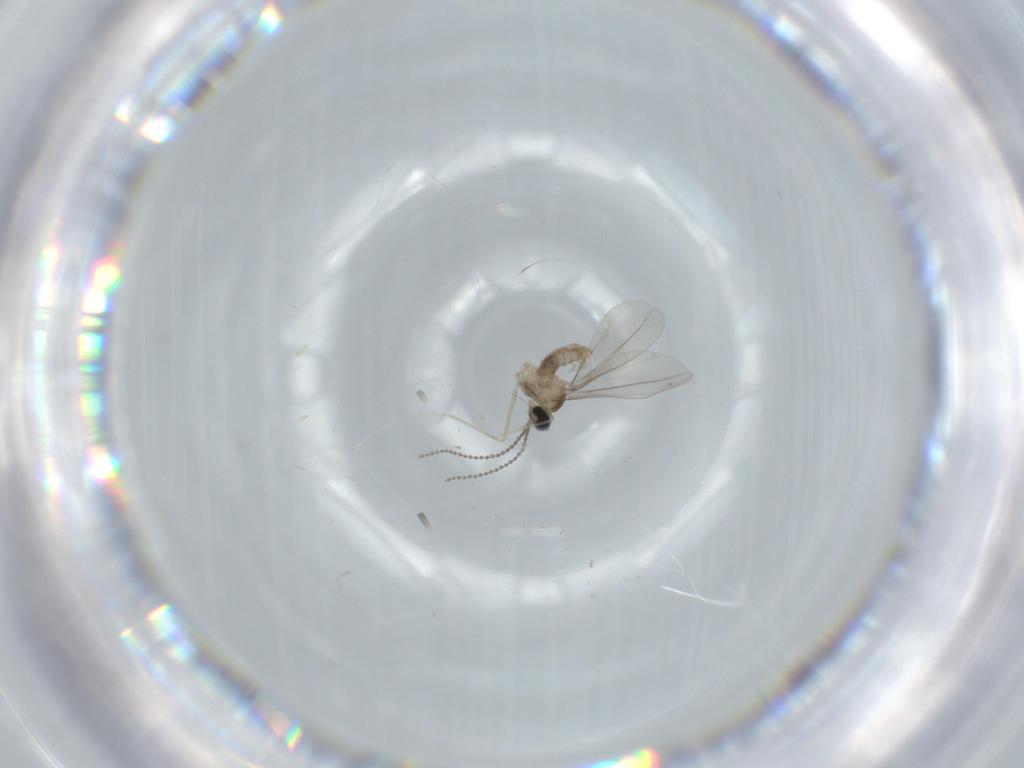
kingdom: Animalia
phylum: Arthropoda
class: Insecta
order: Diptera
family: Cecidomyiidae
